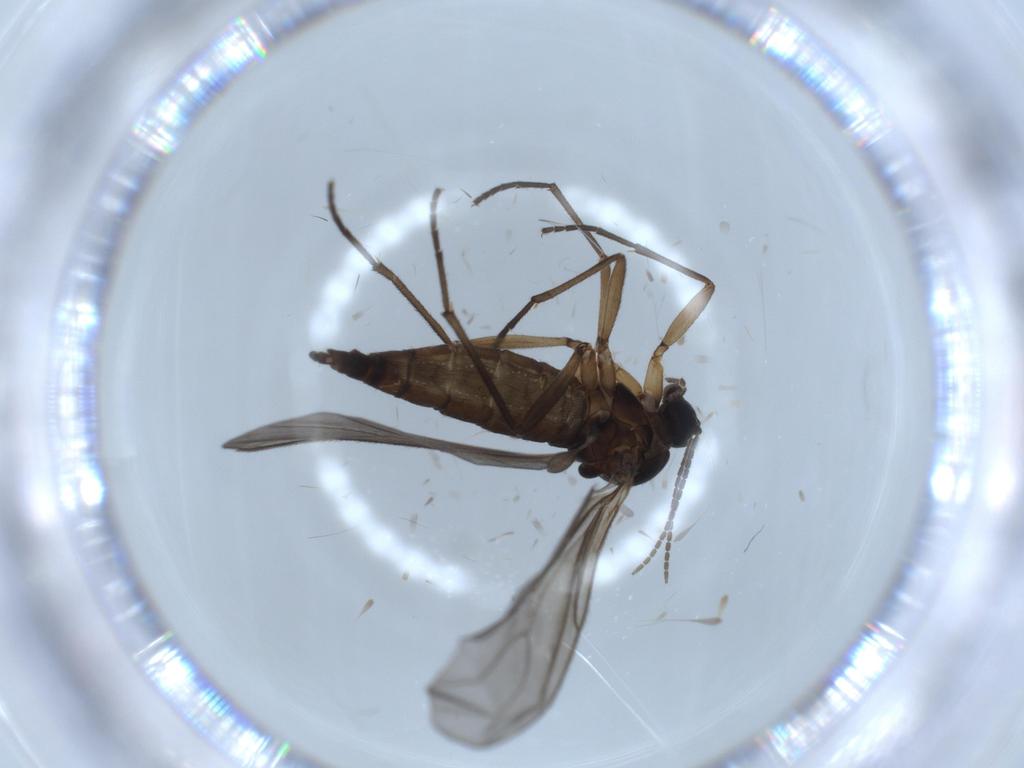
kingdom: Animalia
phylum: Arthropoda
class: Insecta
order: Diptera
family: Sciaridae
